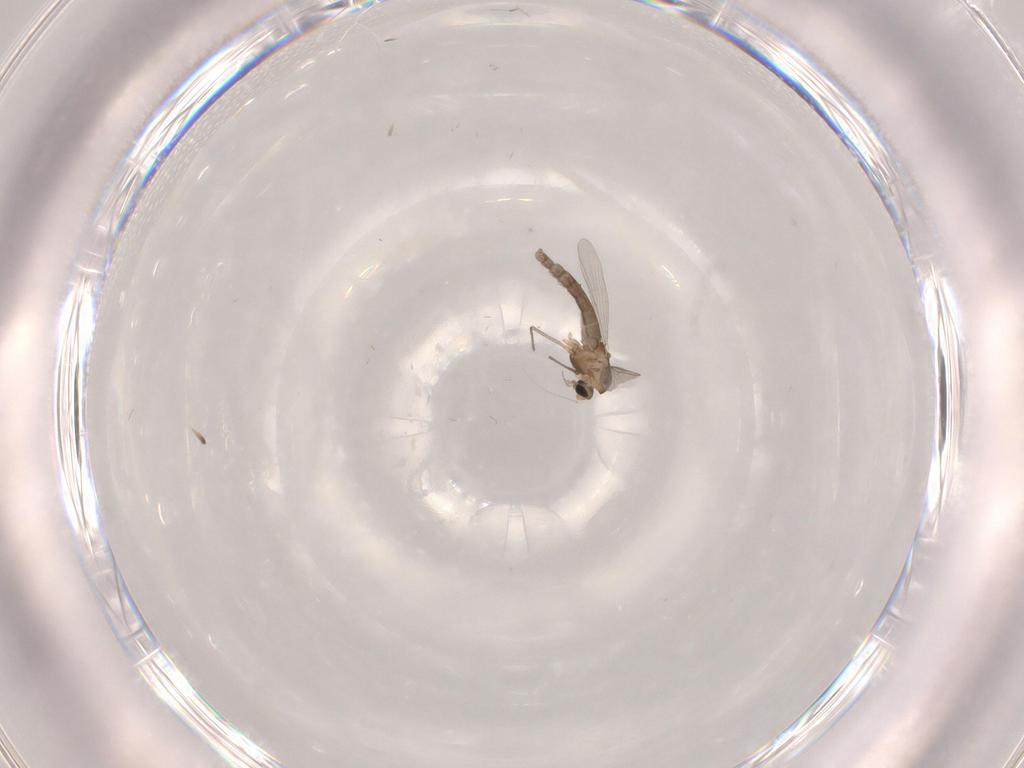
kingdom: Animalia
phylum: Arthropoda
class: Insecta
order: Diptera
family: Chironomidae
